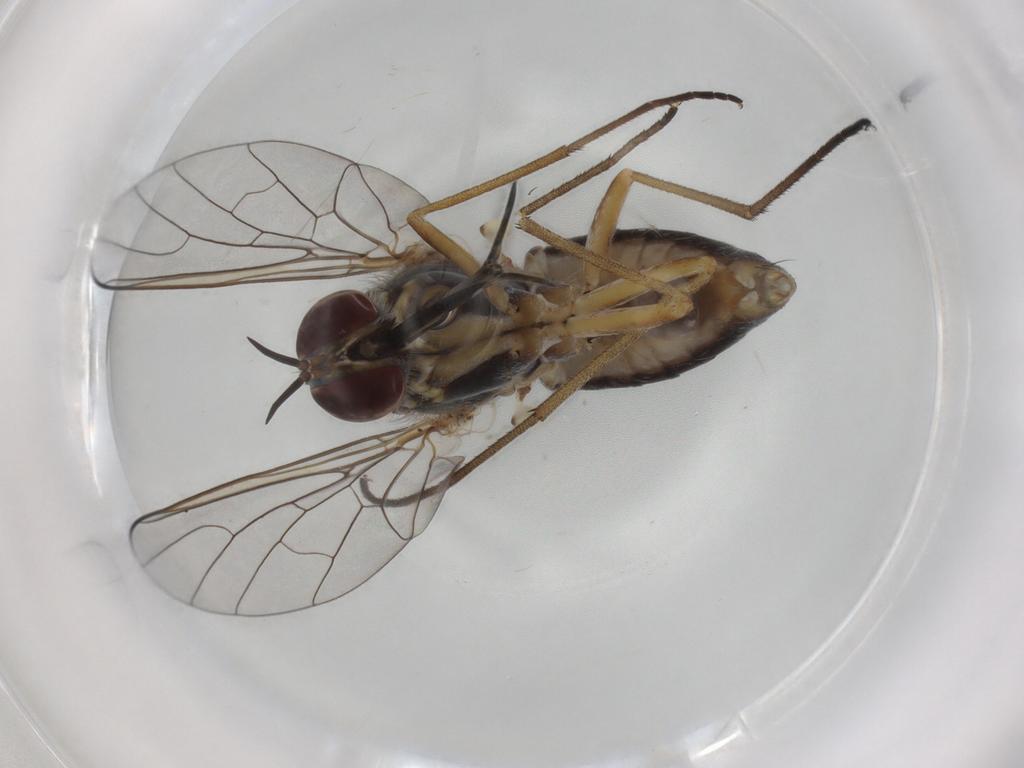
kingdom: Animalia
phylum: Arthropoda
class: Insecta
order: Diptera
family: Bombyliidae
